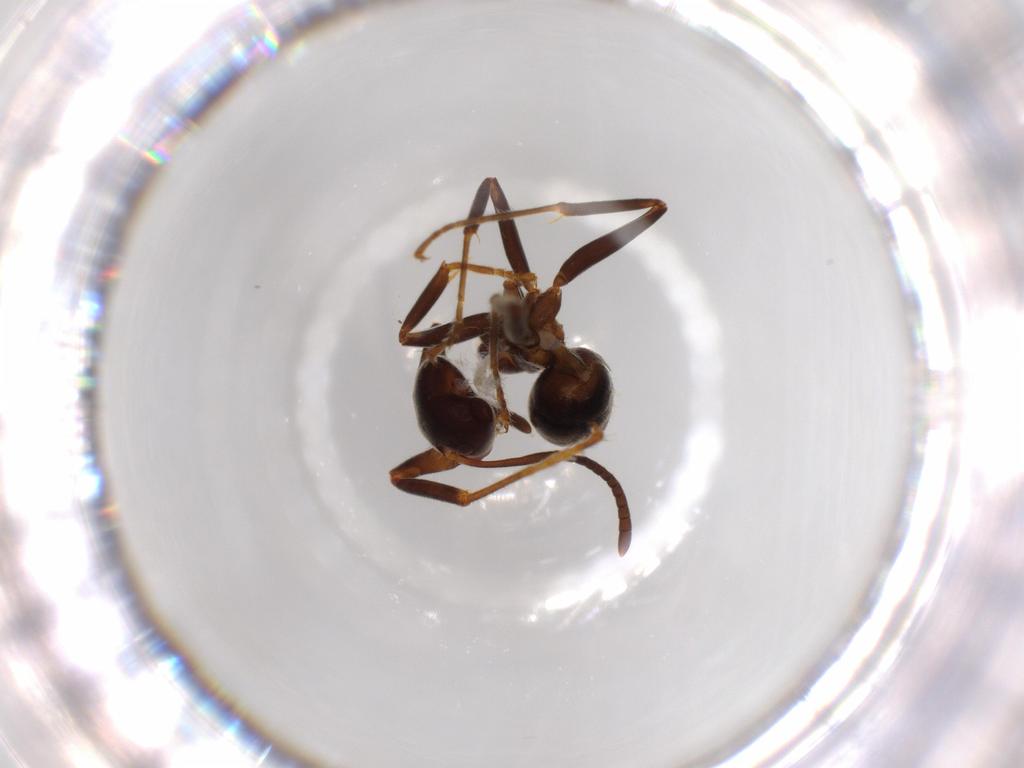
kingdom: Animalia
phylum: Arthropoda
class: Insecta
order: Hymenoptera
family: Formicidae
